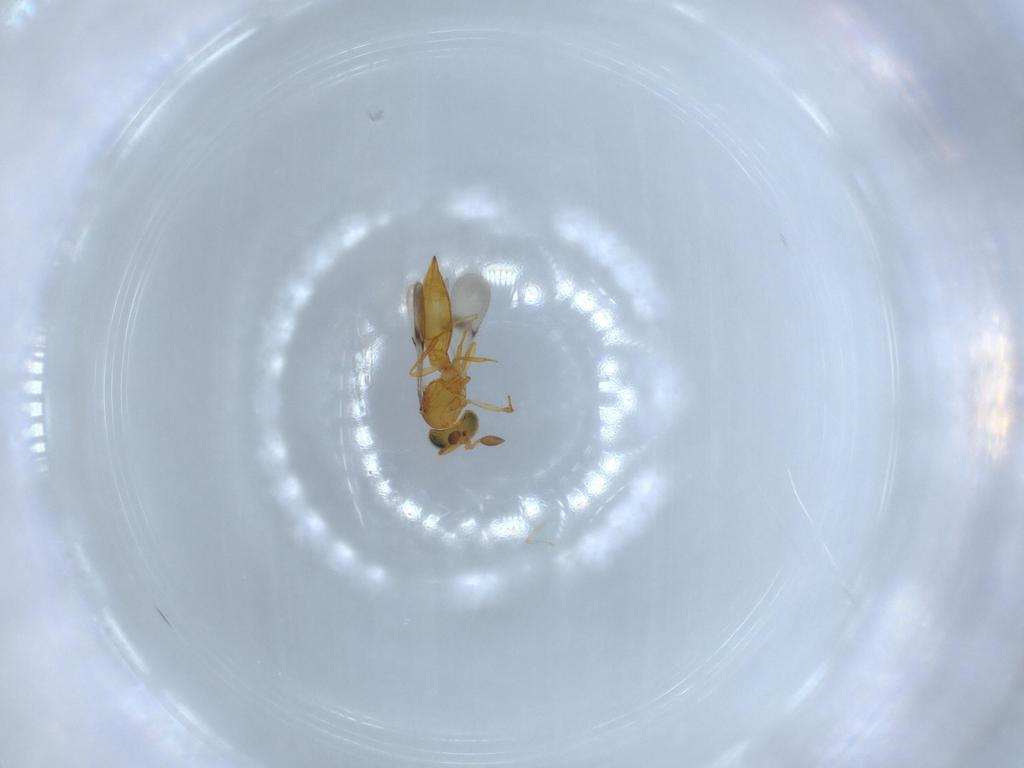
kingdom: Animalia
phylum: Arthropoda
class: Insecta
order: Hymenoptera
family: Scelionidae
